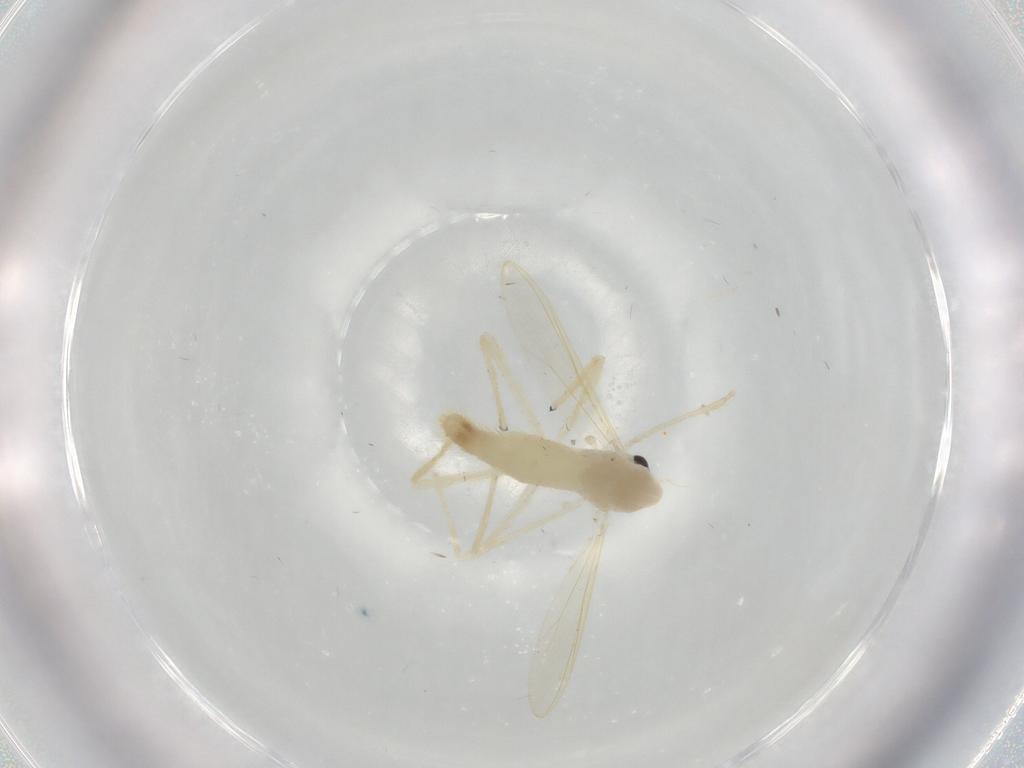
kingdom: Animalia
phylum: Arthropoda
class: Insecta
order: Diptera
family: Chironomidae
